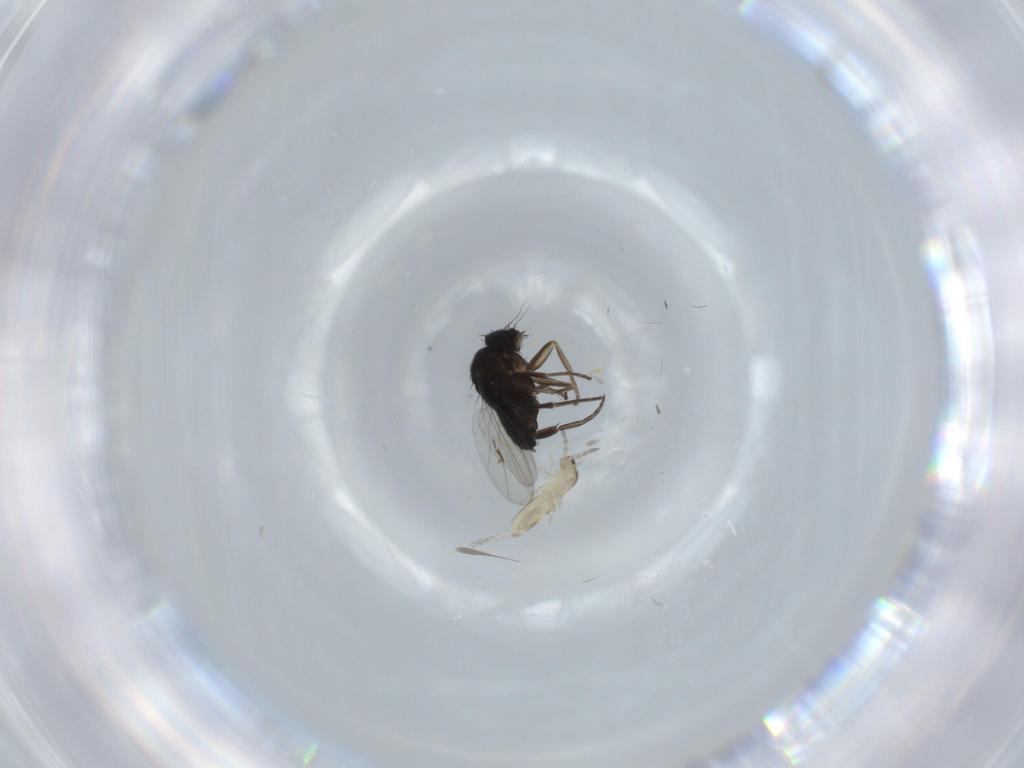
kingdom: Animalia
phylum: Arthropoda
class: Insecta
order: Diptera
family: Phoridae
